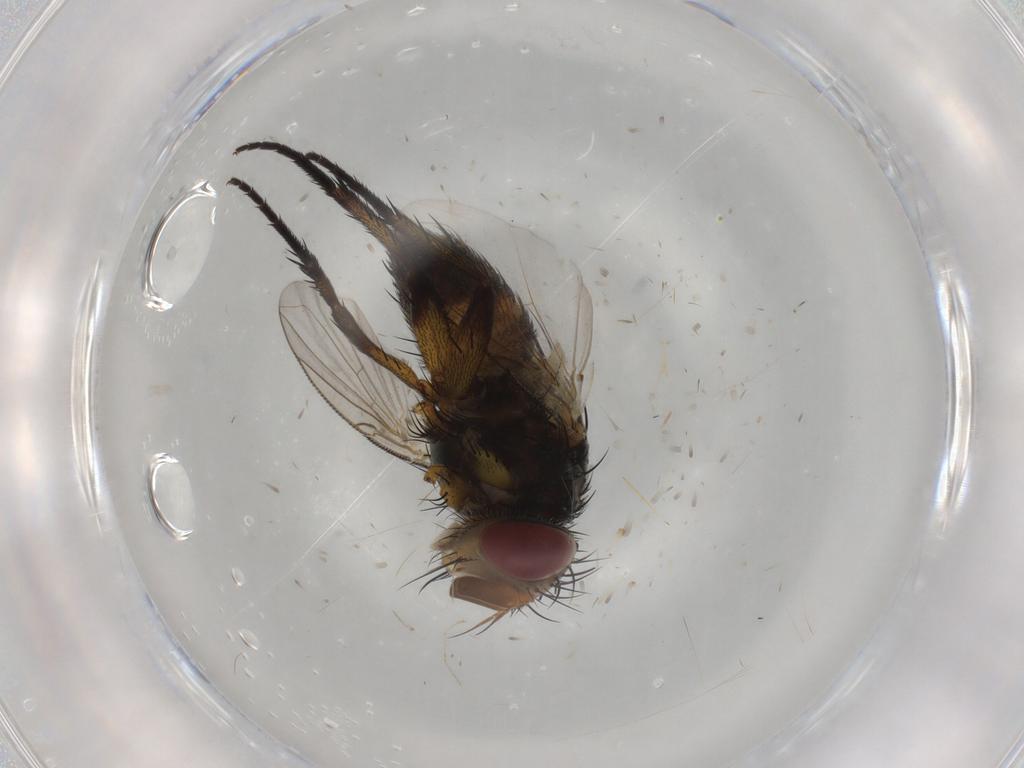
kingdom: Animalia
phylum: Arthropoda
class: Insecta
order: Diptera
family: Tachinidae
